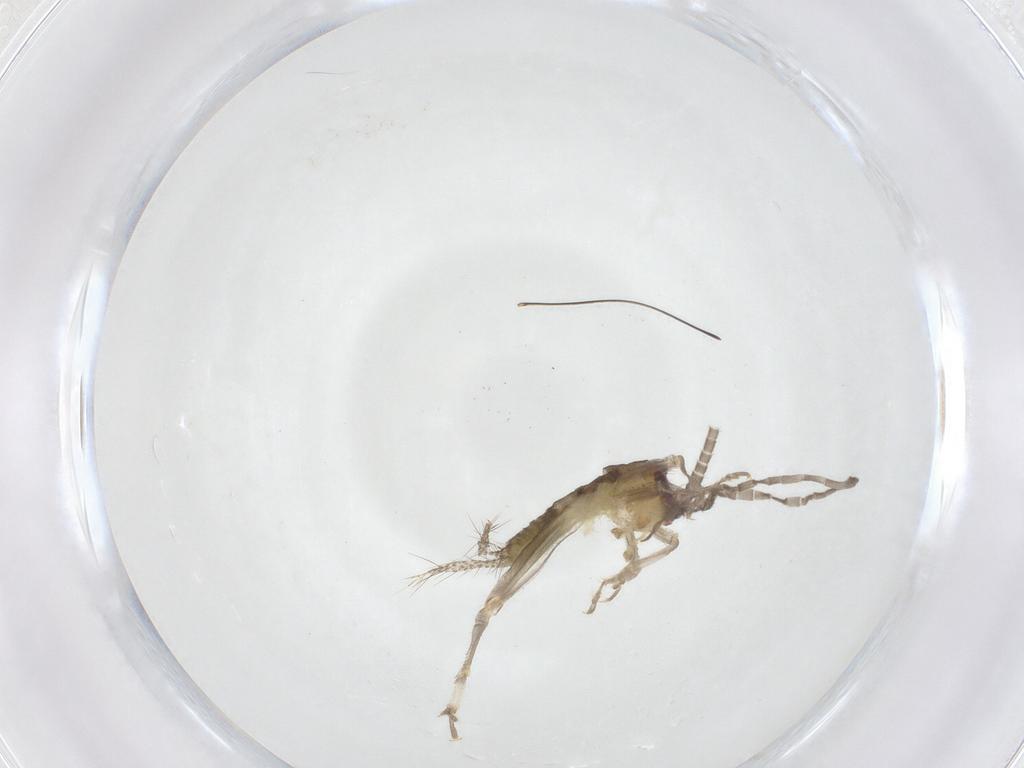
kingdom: Animalia
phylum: Arthropoda
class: Insecta
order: Orthoptera
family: Gryllidae
